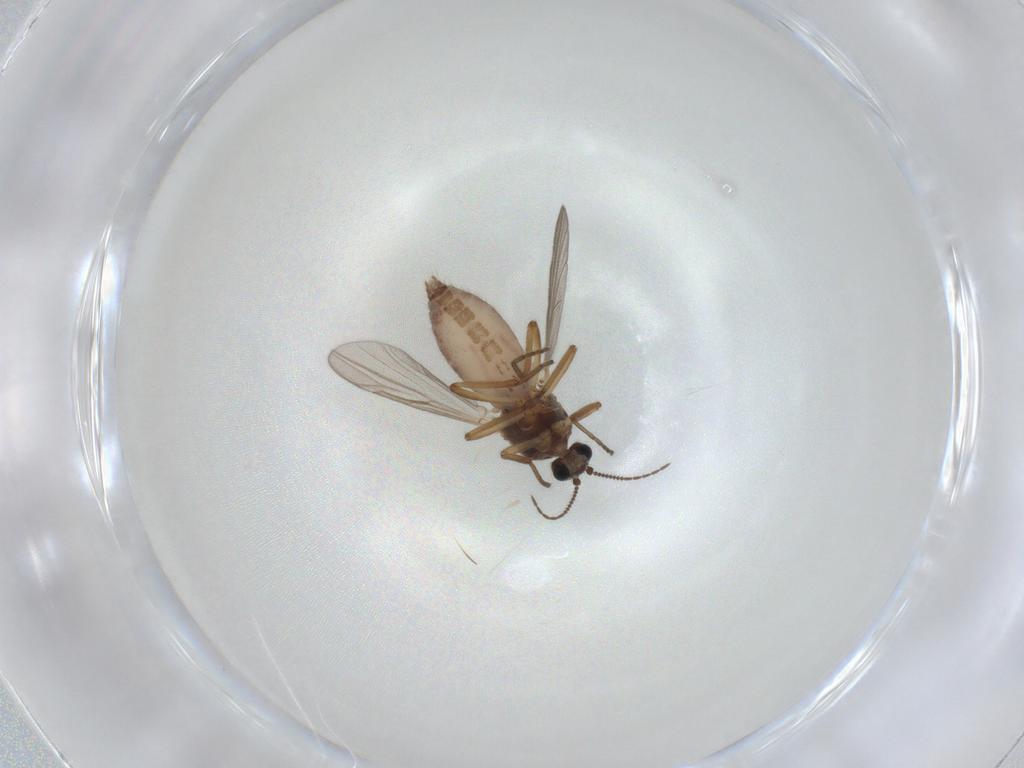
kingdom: Animalia
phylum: Arthropoda
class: Insecta
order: Diptera
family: Ceratopogonidae
